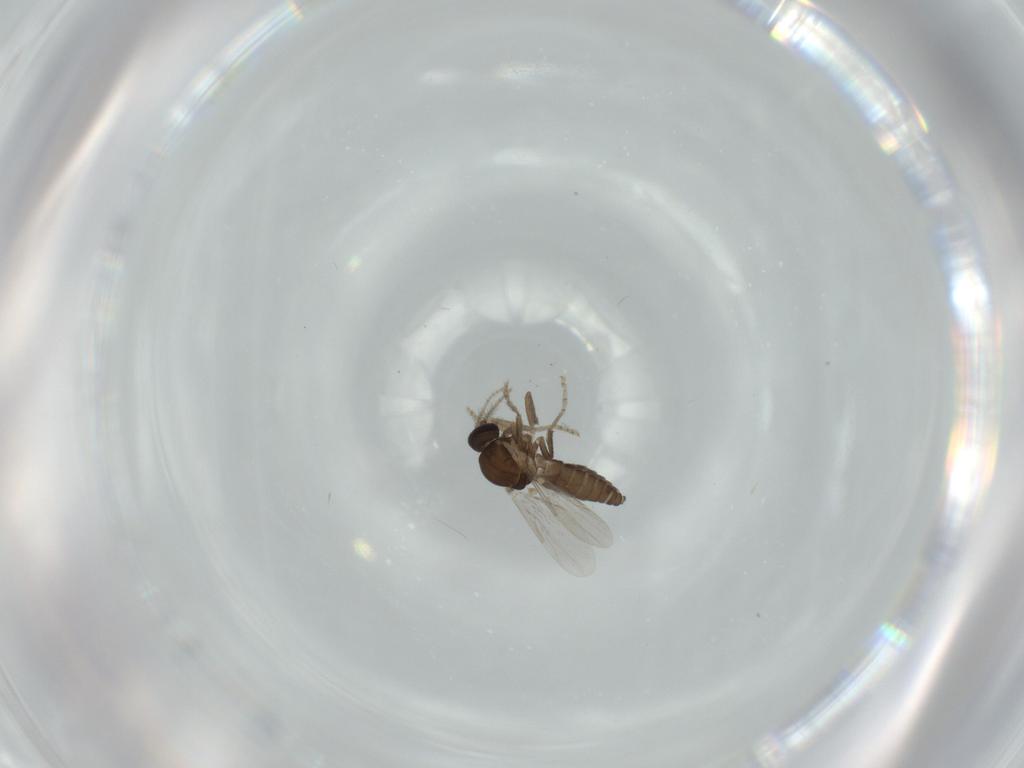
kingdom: Animalia
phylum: Arthropoda
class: Insecta
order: Diptera
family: Ceratopogonidae
